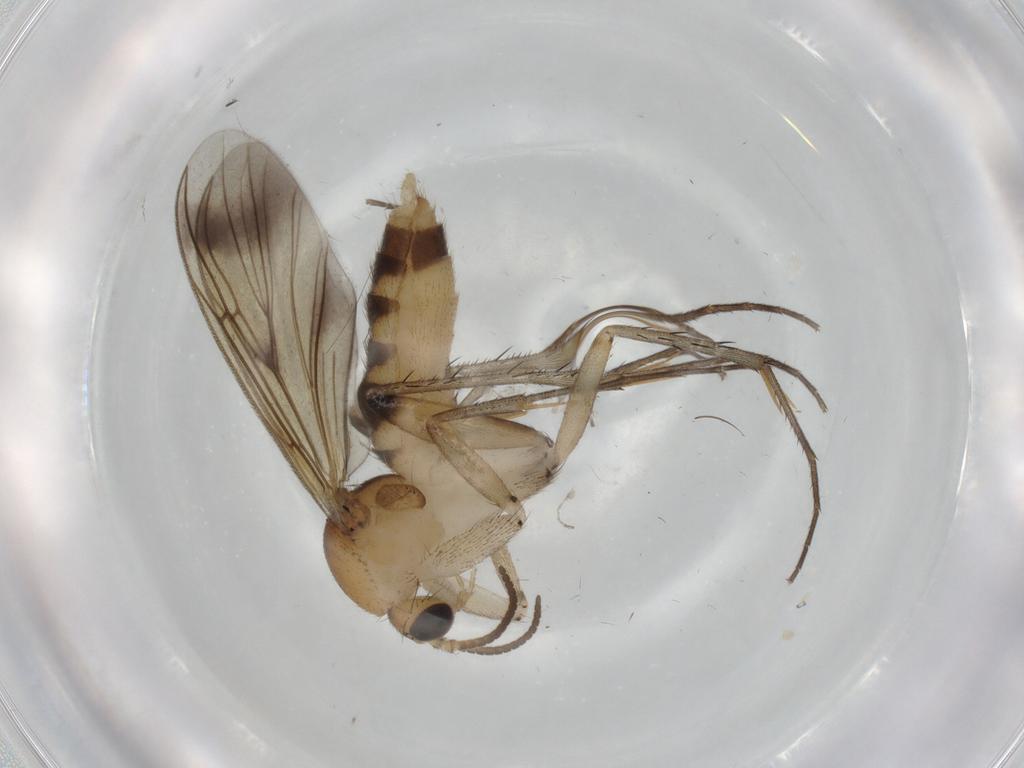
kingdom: Animalia
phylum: Arthropoda
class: Insecta
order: Diptera
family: Mycetophilidae
